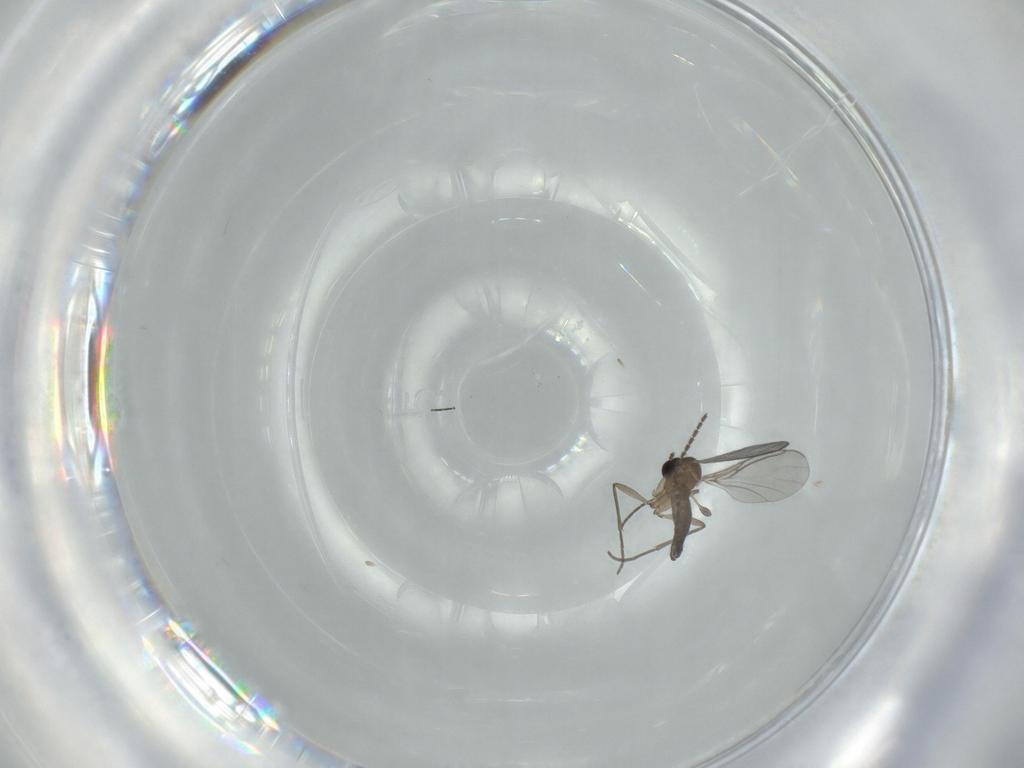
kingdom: Animalia
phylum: Arthropoda
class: Insecta
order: Diptera
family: Sciaridae
